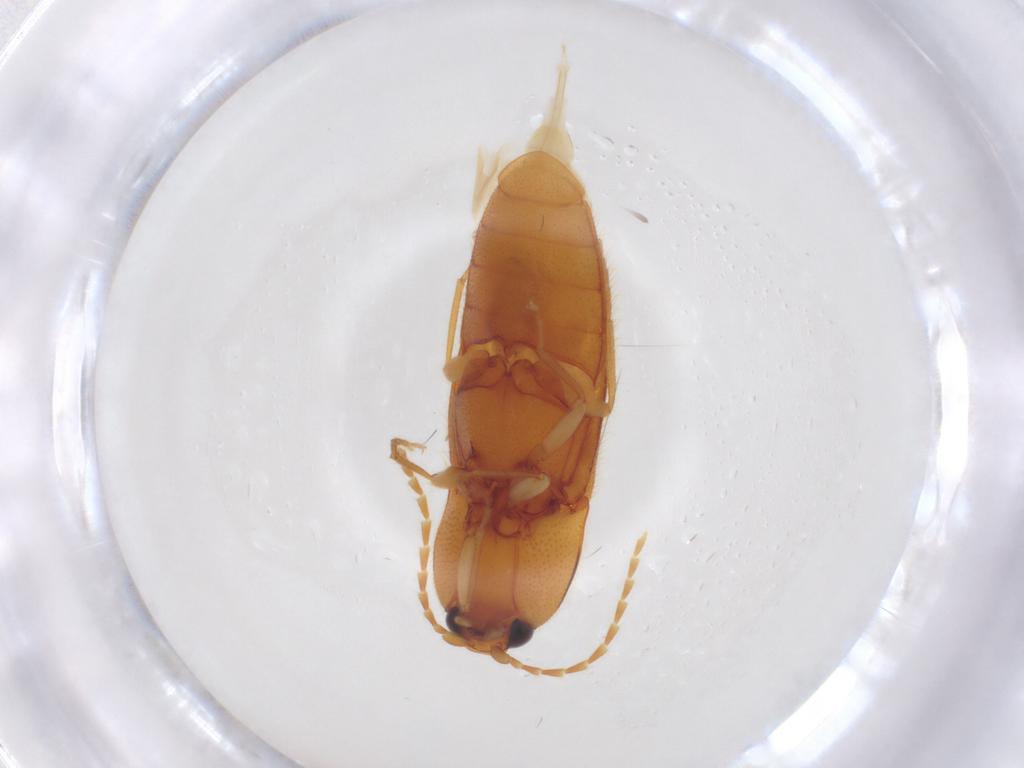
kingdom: Animalia
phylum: Arthropoda
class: Insecta
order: Coleoptera
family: Elateridae
